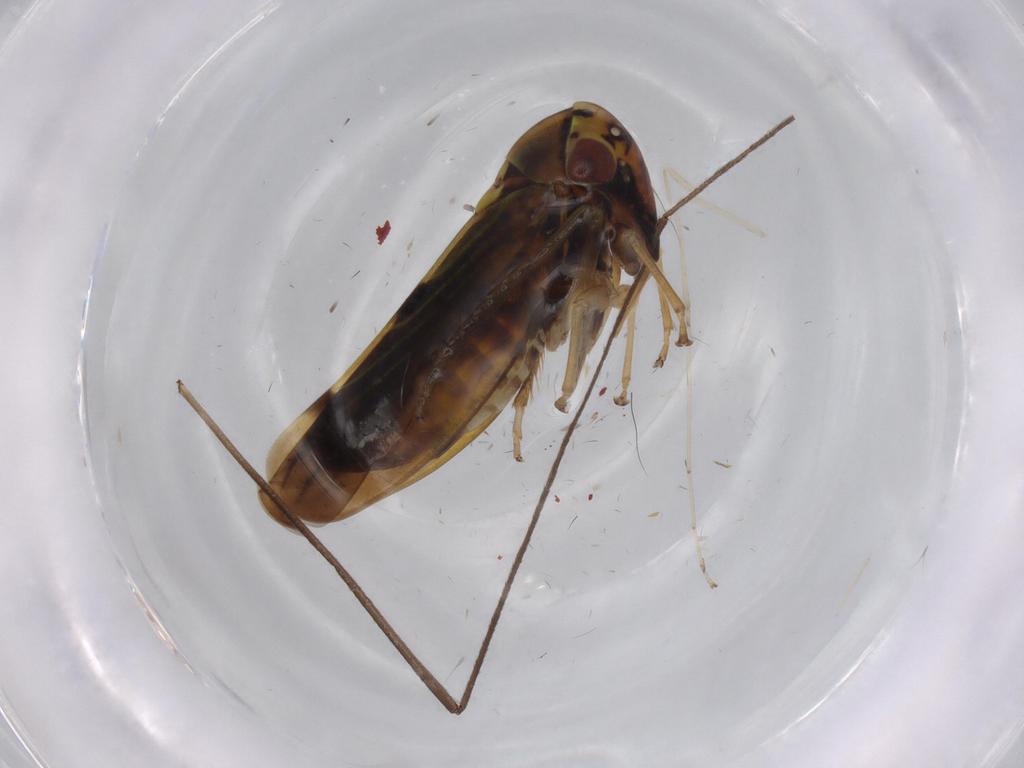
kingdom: Animalia
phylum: Arthropoda
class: Insecta
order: Hemiptera
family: Cicadellidae
